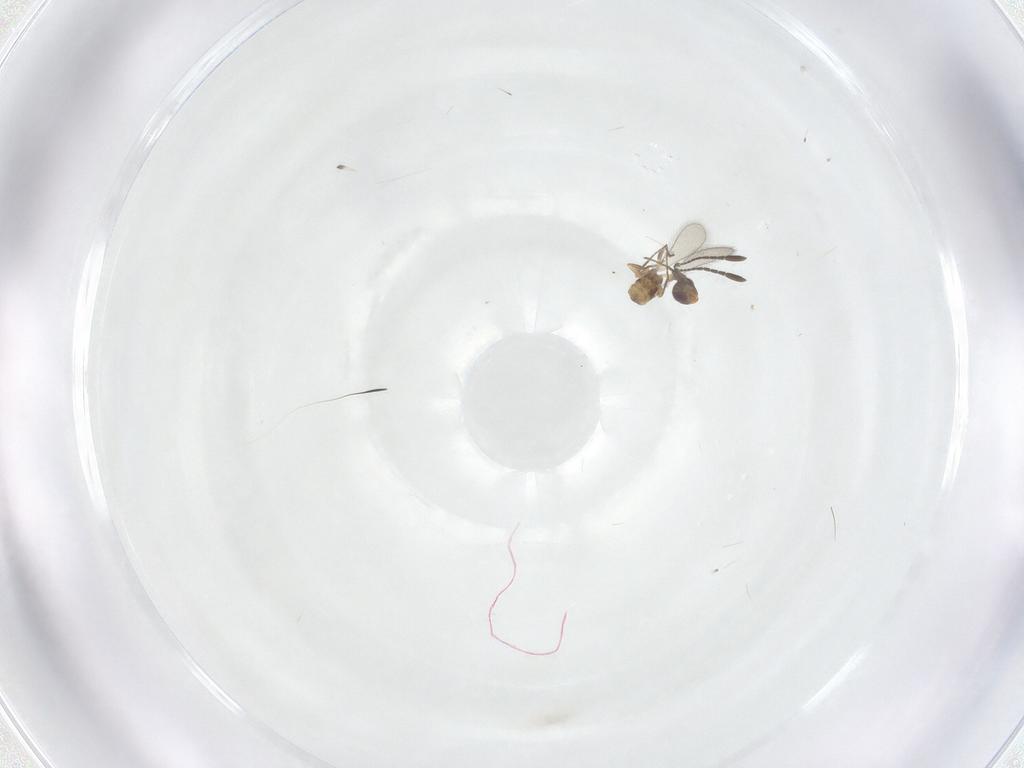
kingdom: Animalia
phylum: Arthropoda
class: Insecta
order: Hymenoptera
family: Mymaridae
